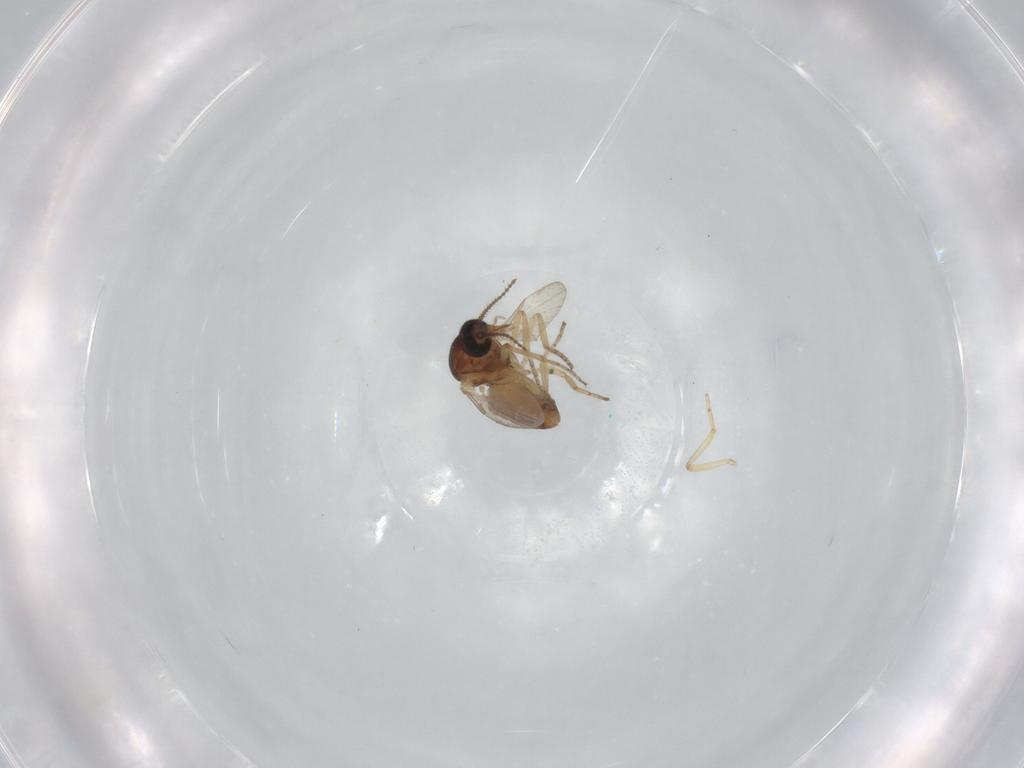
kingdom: Animalia
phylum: Arthropoda
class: Insecta
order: Diptera
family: Ceratopogonidae
